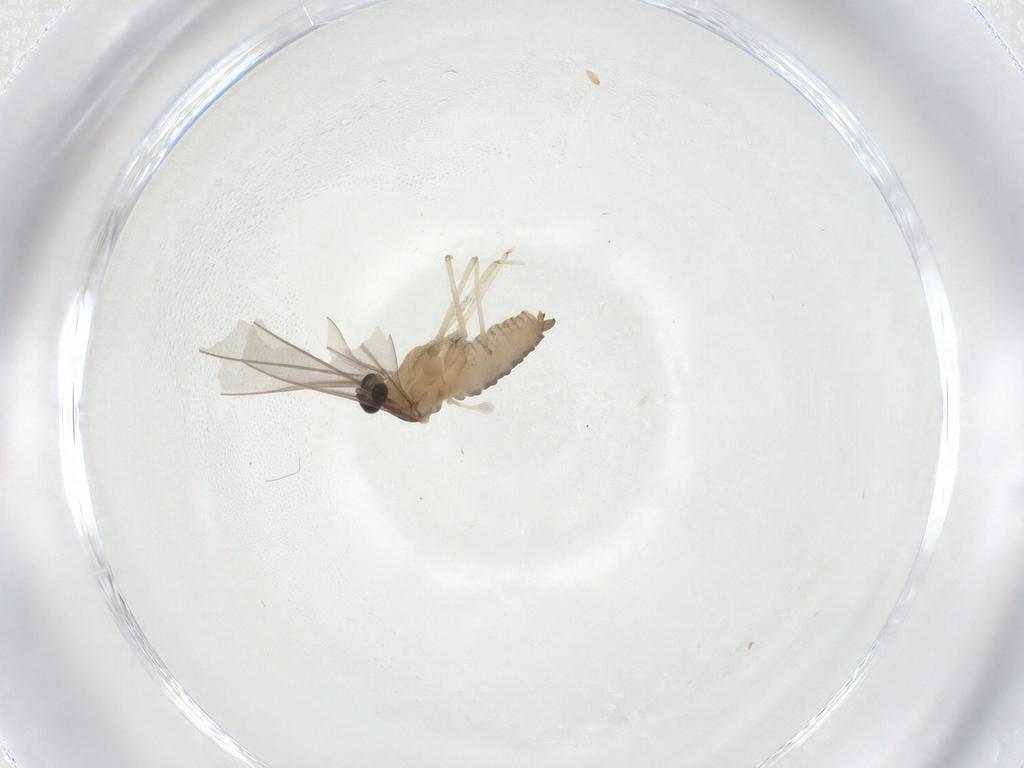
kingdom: Animalia
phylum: Arthropoda
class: Insecta
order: Diptera
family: Cecidomyiidae
